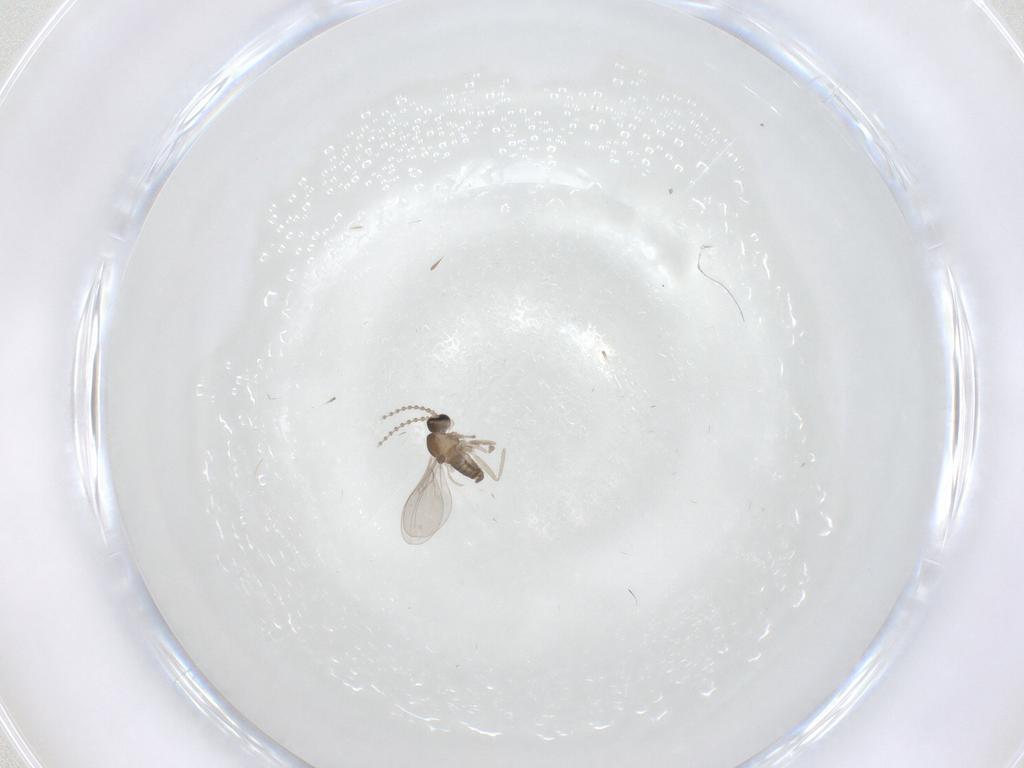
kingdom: Animalia
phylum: Arthropoda
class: Insecta
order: Diptera
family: Cecidomyiidae
